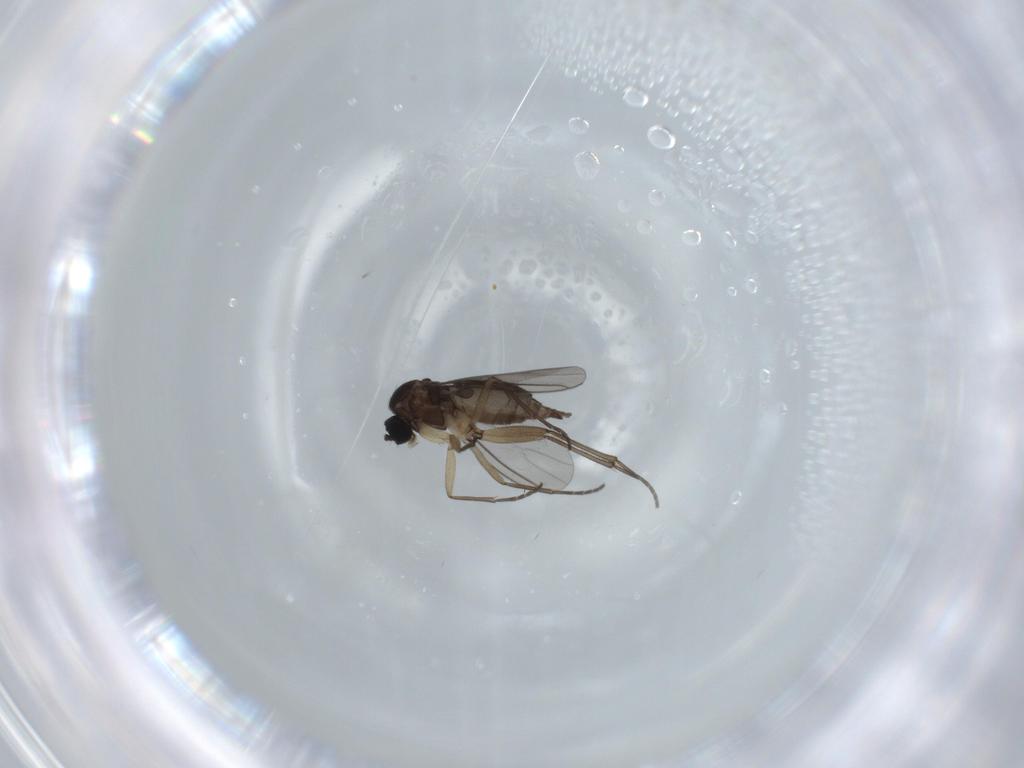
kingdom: Animalia
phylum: Arthropoda
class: Insecta
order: Diptera
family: Sciaridae
